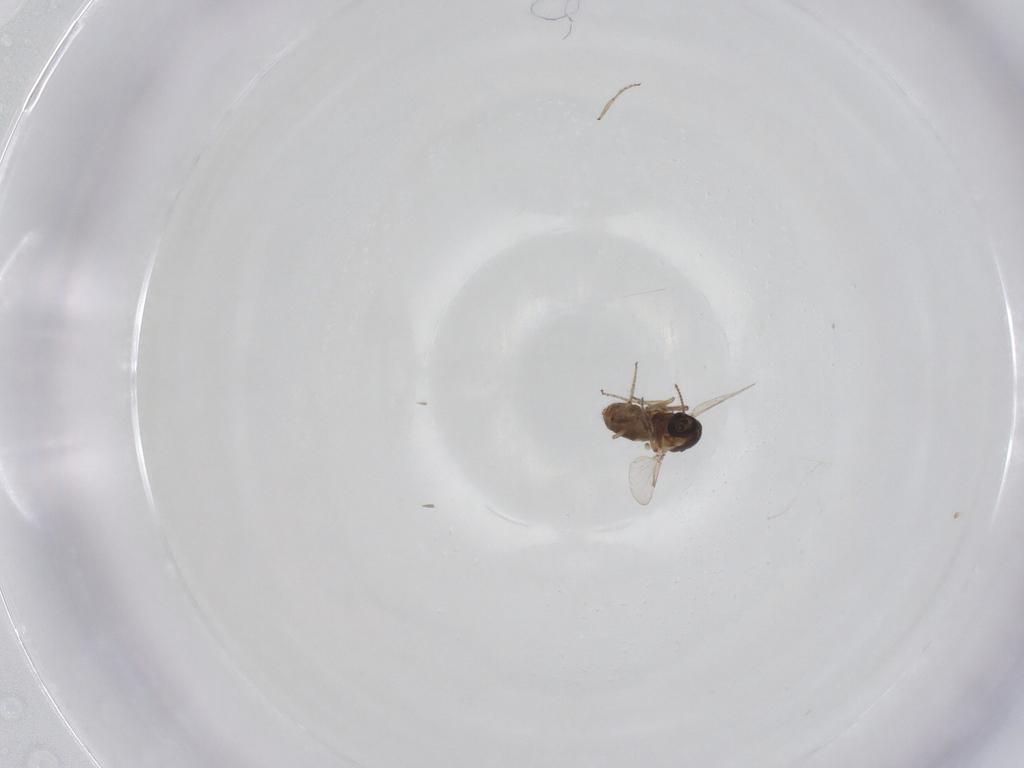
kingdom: Animalia
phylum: Arthropoda
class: Insecta
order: Diptera
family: Ceratopogonidae
